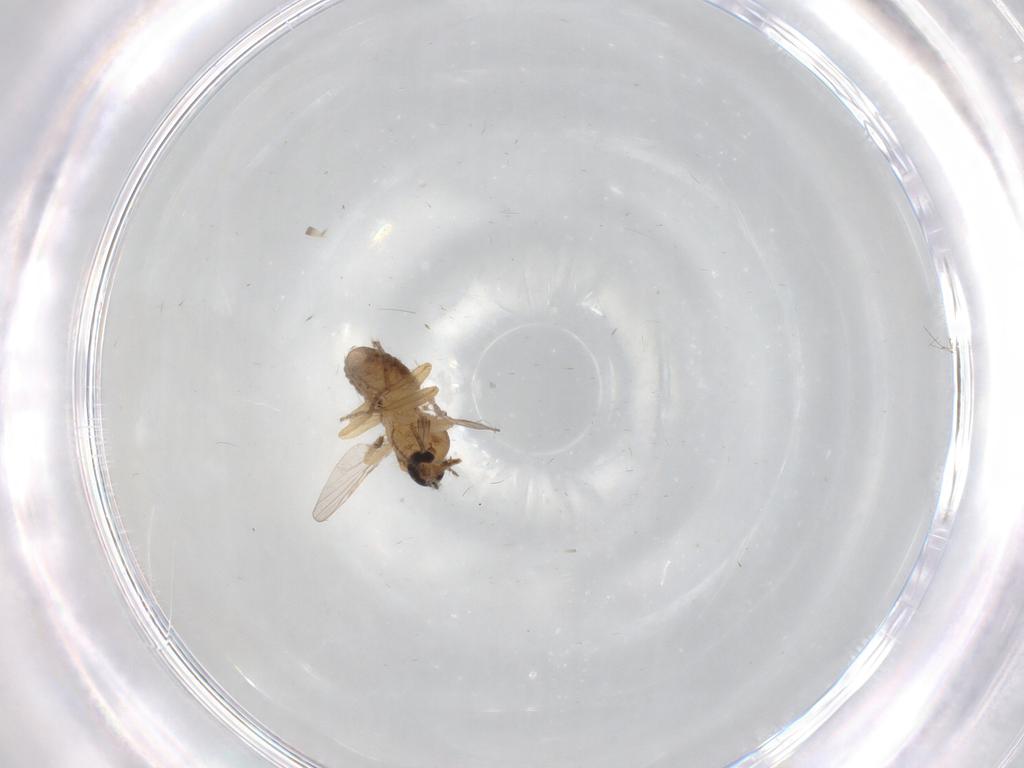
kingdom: Animalia
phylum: Arthropoda
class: Insecta
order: Diptera
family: Ceratopogonidae
